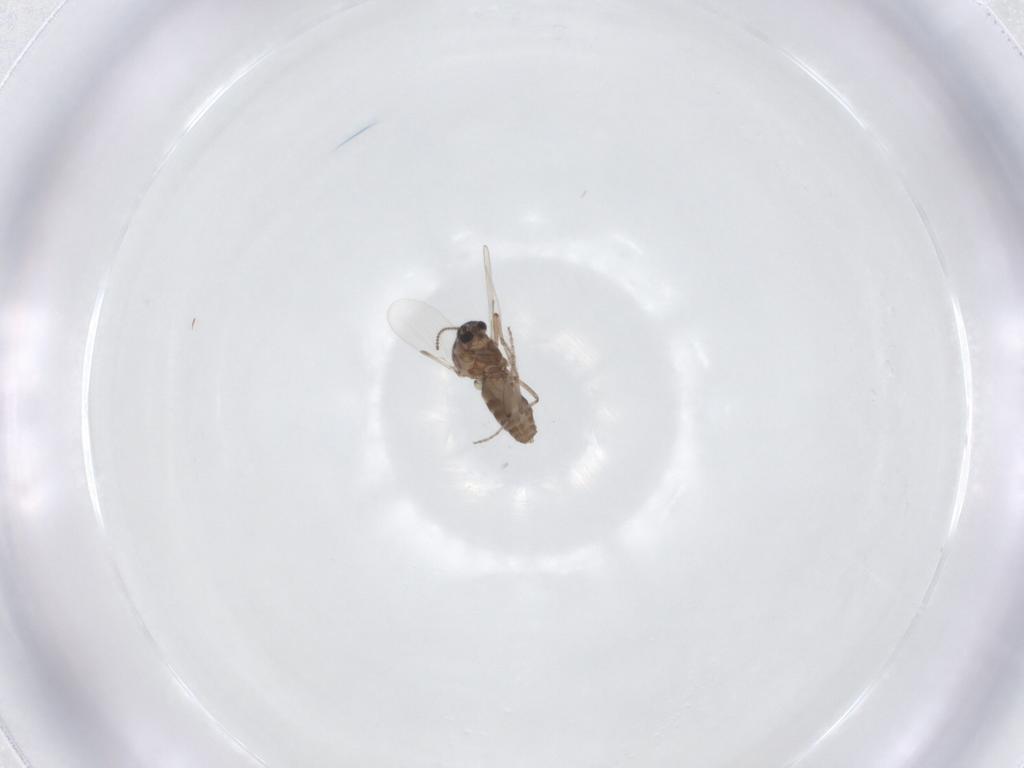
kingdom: Animalia
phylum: Arthropoda
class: Insecta
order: Diptera
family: Ceratopogonidae
